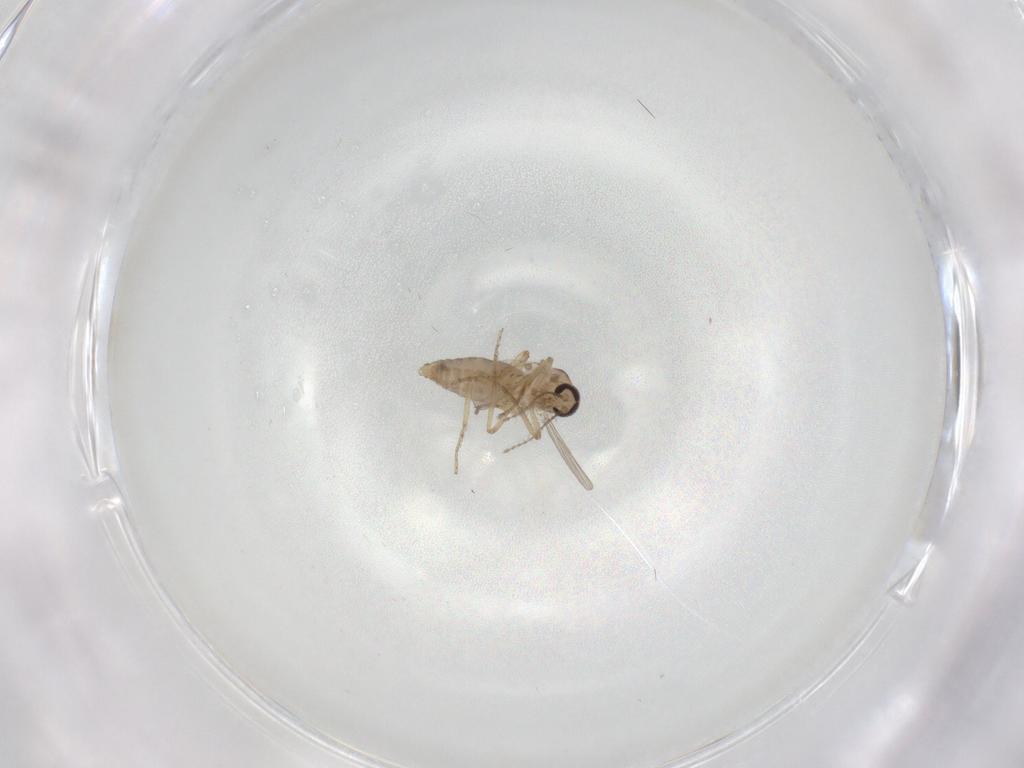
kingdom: Animalia
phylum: Arthropoda
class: Insecta
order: Diptera
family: Ceratopogonidae
